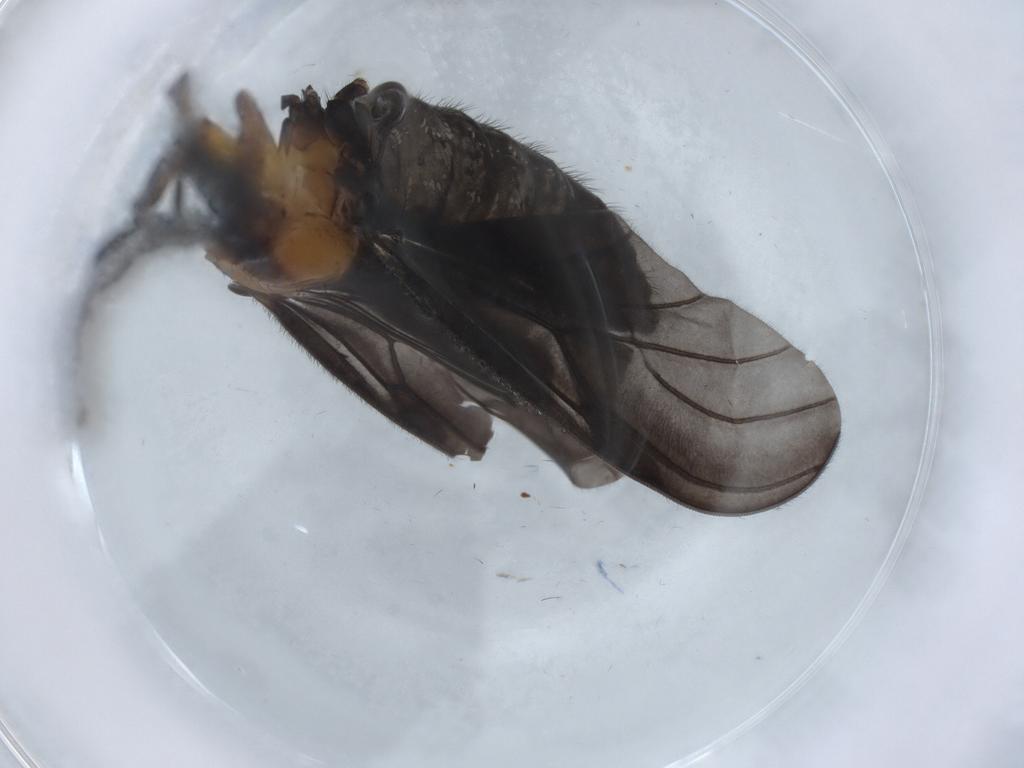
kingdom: Animalia
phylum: Arthropoda
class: Insecta
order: Diptera
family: Bibionidae
